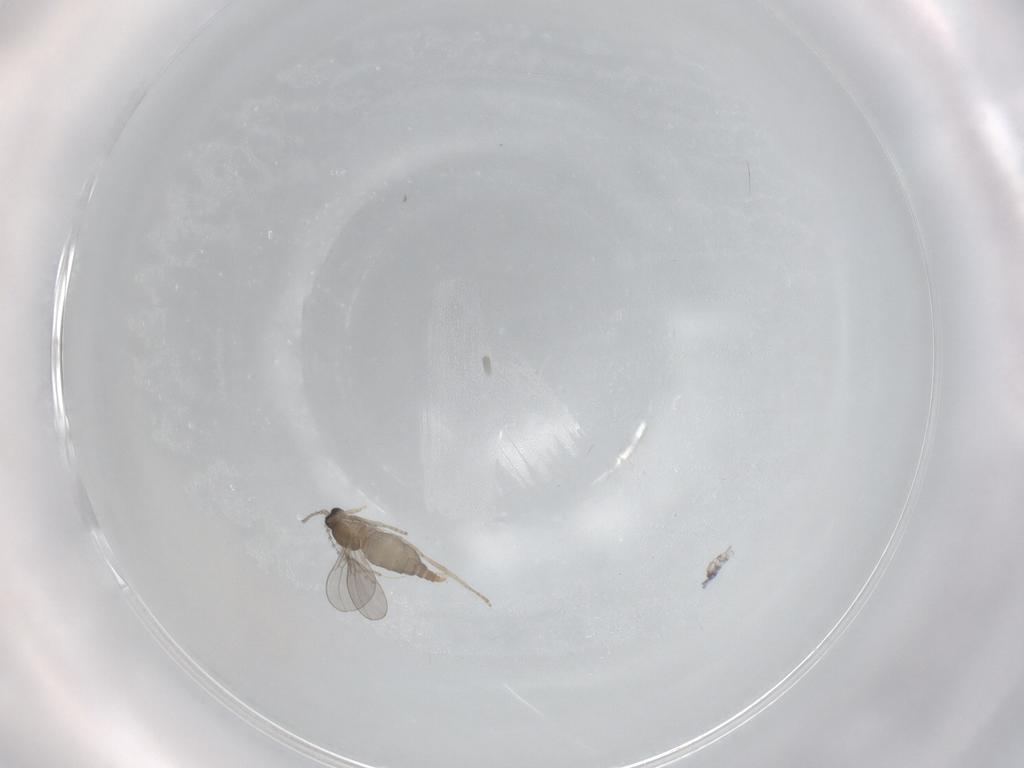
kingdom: Animalia
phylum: Arthropoda
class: Insecta
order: Diptera
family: Cecidomyiidae
